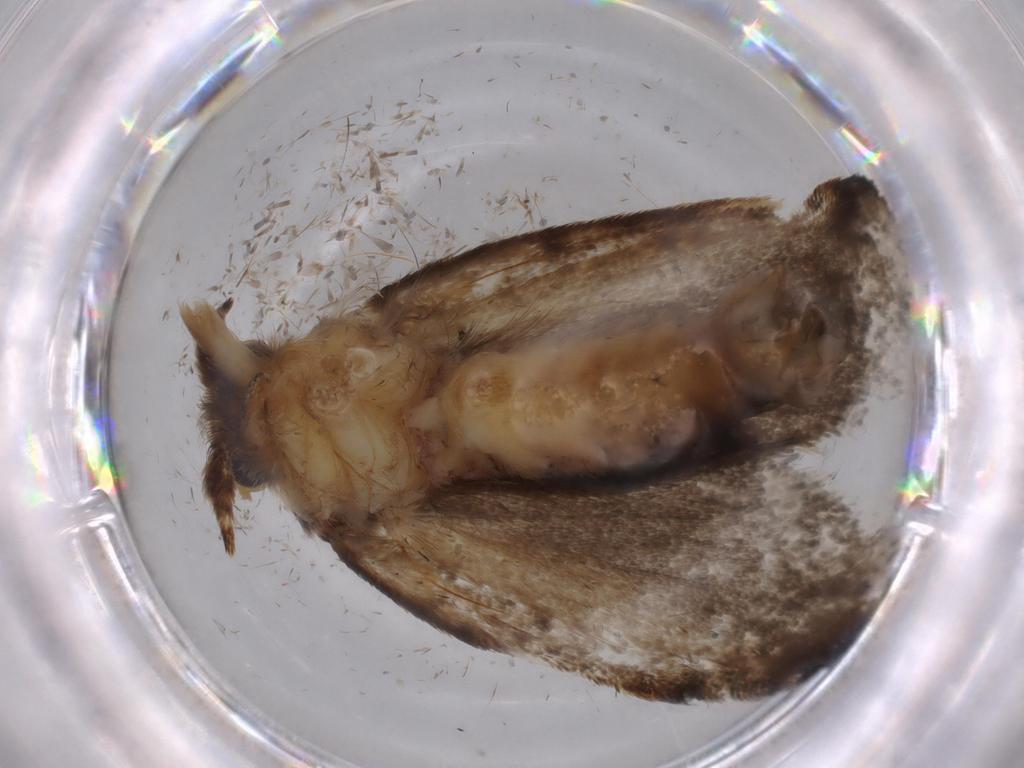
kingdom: Animalia
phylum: Arthropoda
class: Insecta
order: Lepidoptera
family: Tineidae
